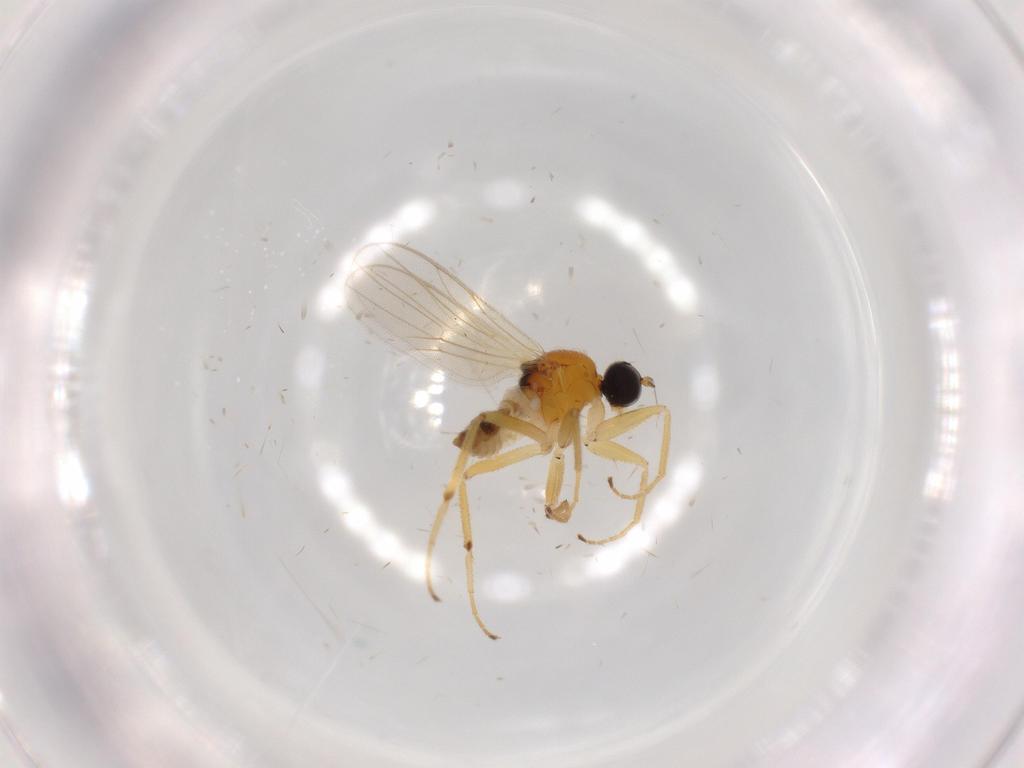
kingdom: Animalia
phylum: Arthropoda
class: Insecta
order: Diptera
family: Hybotidae
